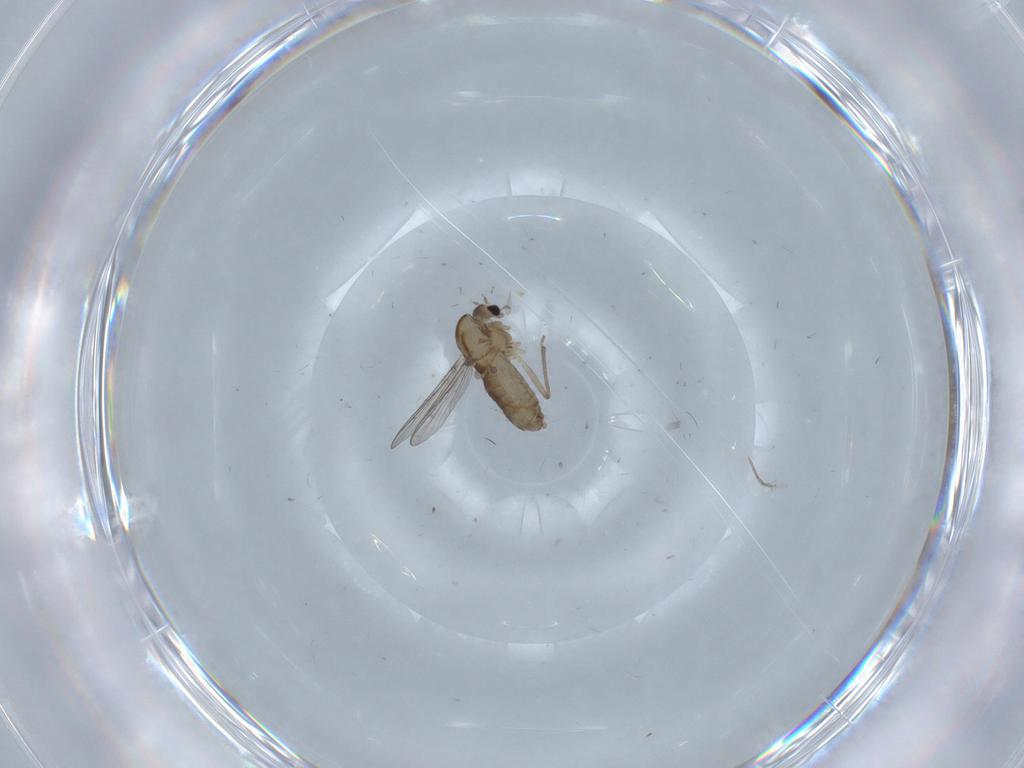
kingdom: Animalia
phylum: Arthropoda
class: Insecta
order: Diptera
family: Chironomidae
